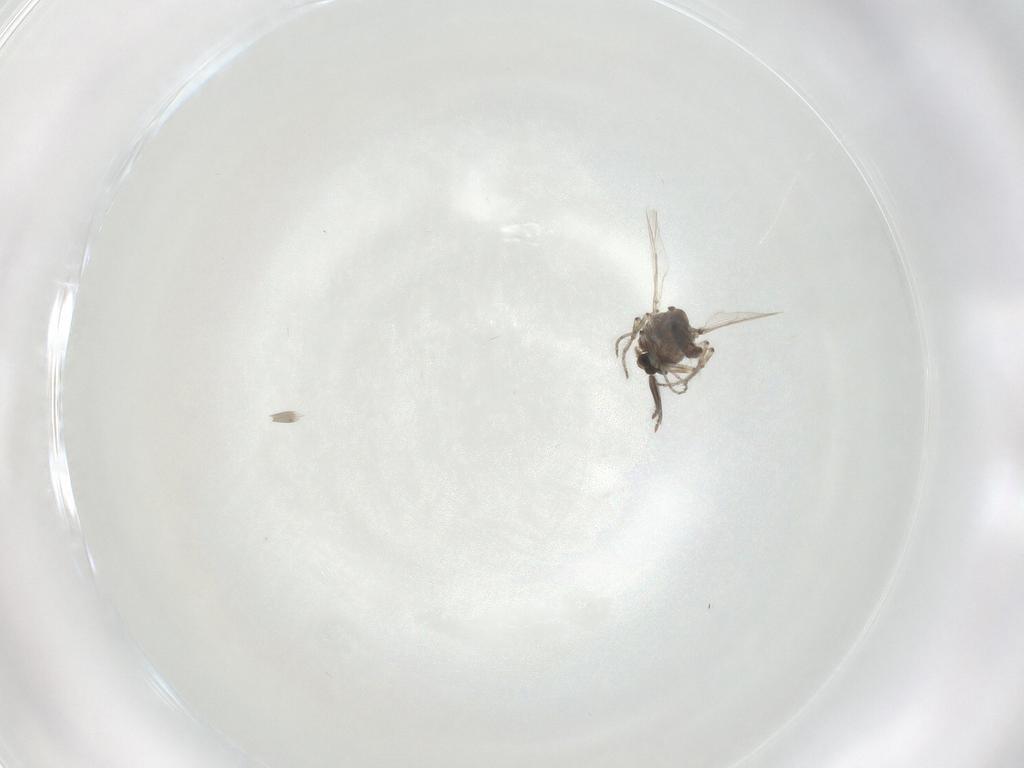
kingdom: Animalia
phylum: Arthropoda
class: Insecta
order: Diptera
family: Ceratopogonidae
